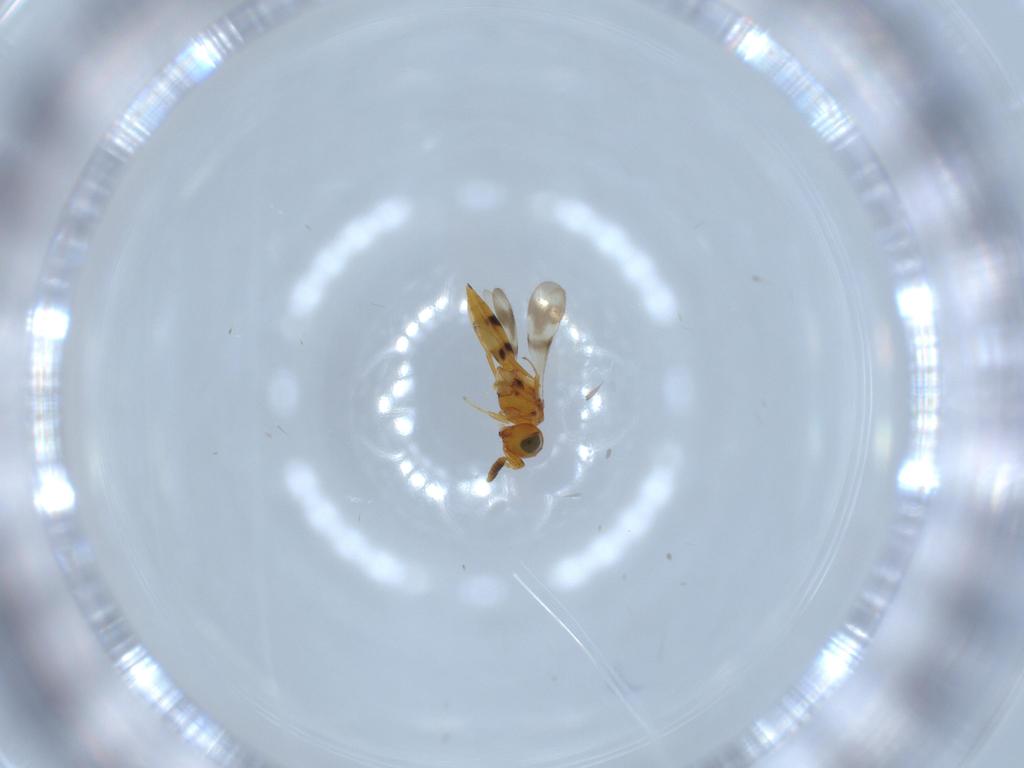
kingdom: Animalia
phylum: Arthropoda
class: Insecta
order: Hymenoptera
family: Scelionidae
